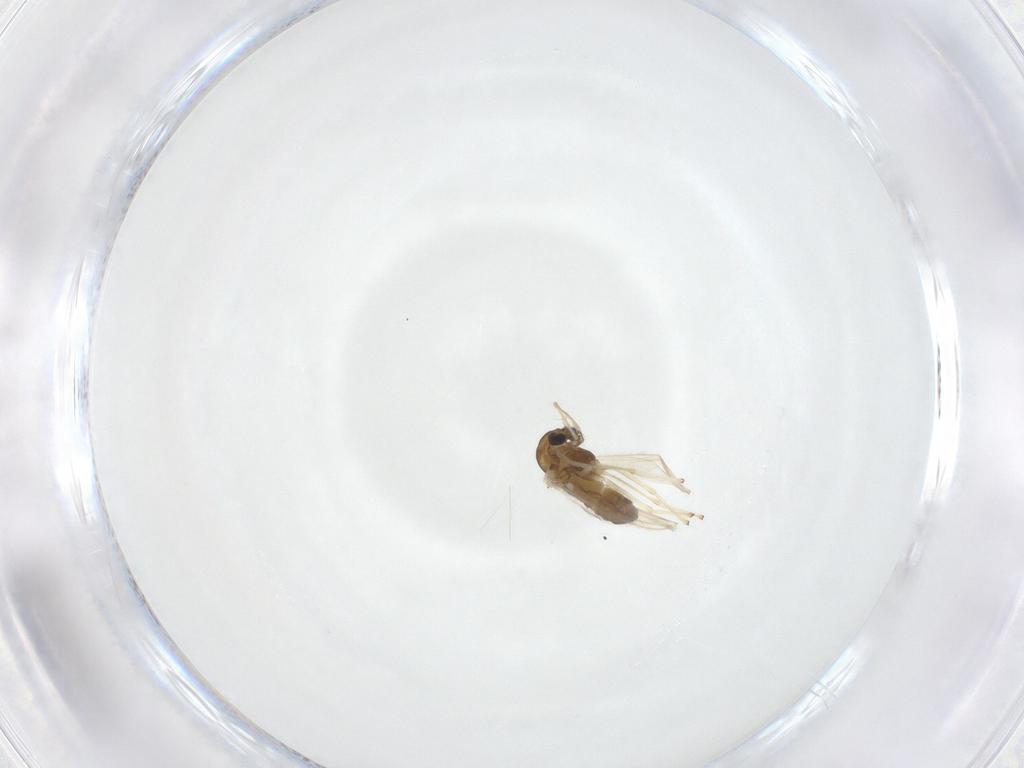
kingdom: Animalia
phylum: Arthropoda
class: Insecta
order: Diptera
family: Chironomidae
